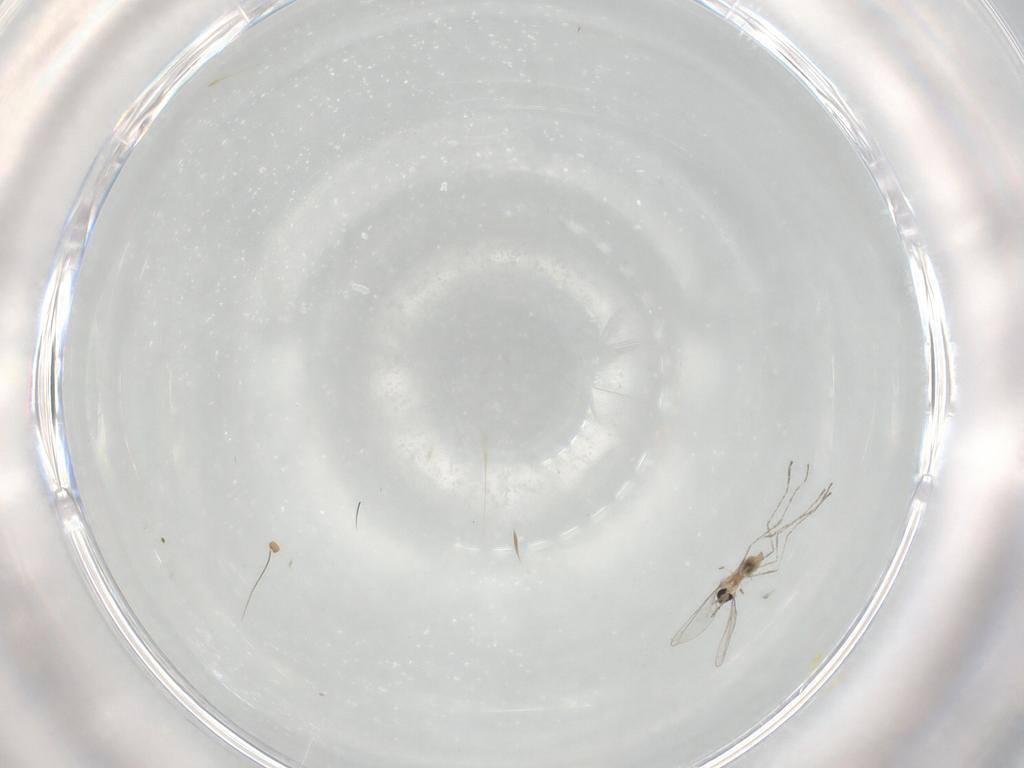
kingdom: Animalia
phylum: Arthropoda
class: Insecta
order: Diptera
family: Cecidomyiidae
